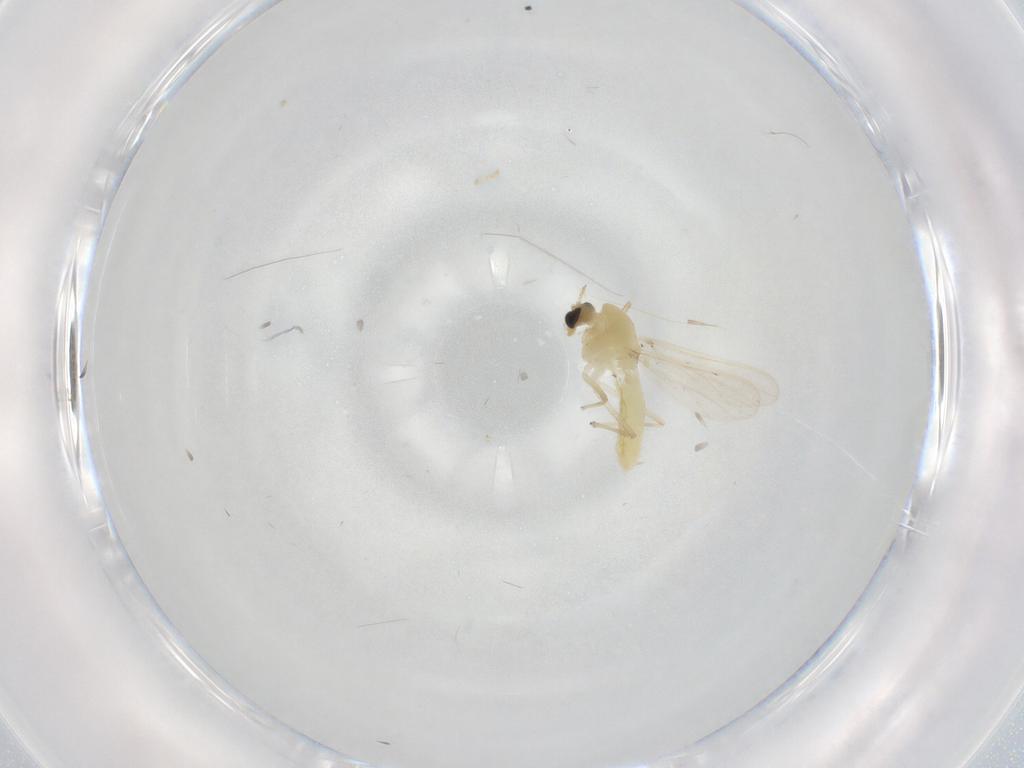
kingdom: Animalia
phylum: Arthropoda
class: Insecta
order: Diptera
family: Chironomidae
